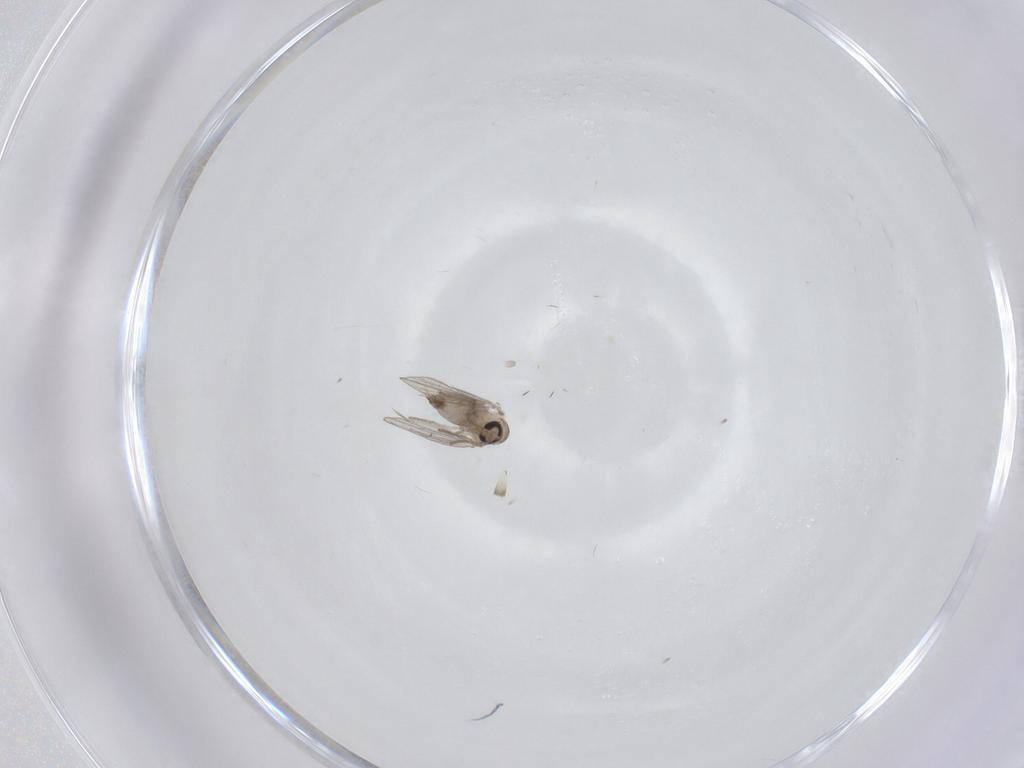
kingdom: Animalia
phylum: Arthropoda
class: Insecta
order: Diptera
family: Psychodidae
